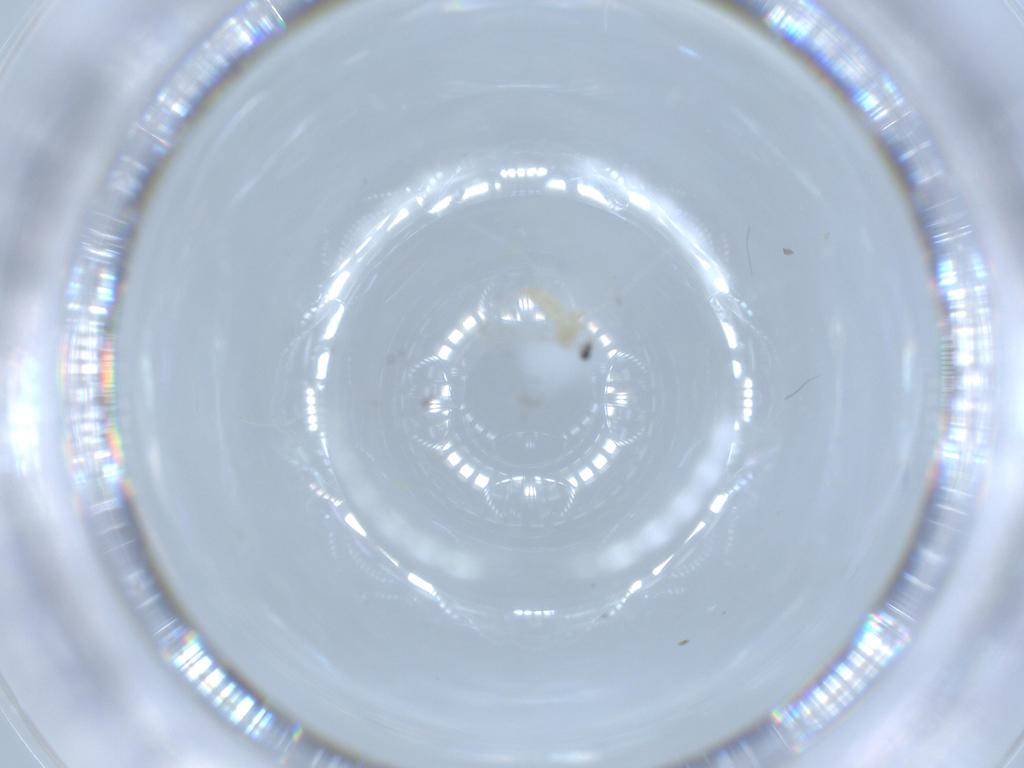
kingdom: Animalia
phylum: Arthropoda
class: Insecta
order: Diptera
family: Cecidomyiidae
